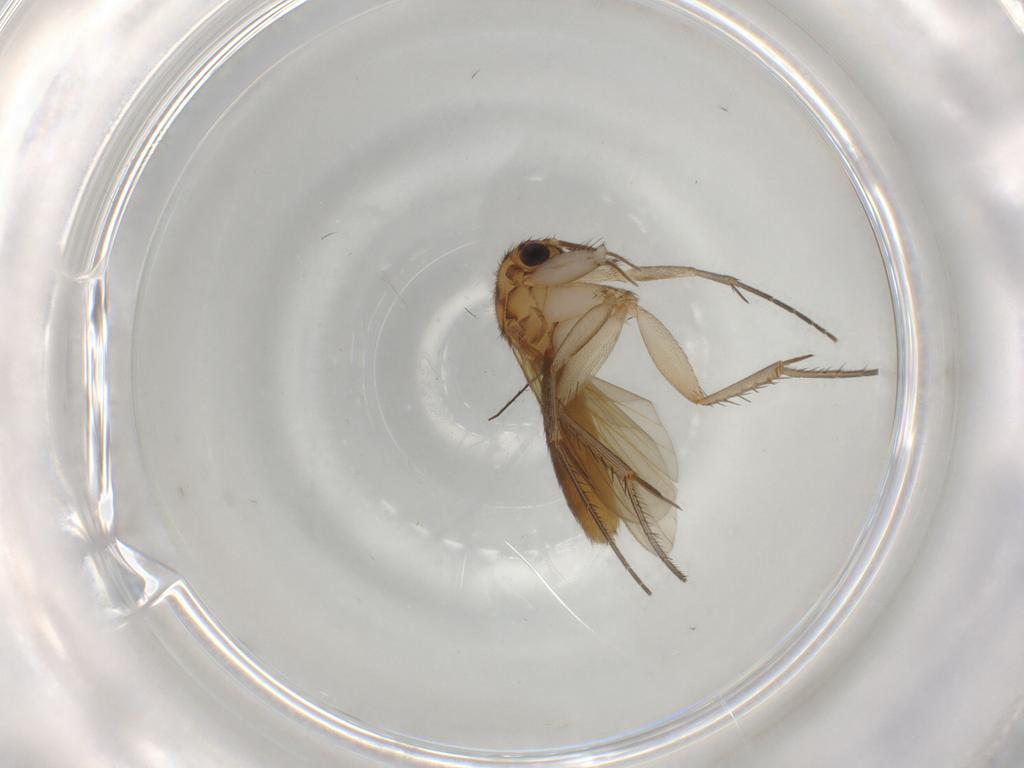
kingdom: Animalia
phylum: Arthropoda
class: Insecta
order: Diptera
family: Mycetophilidae
